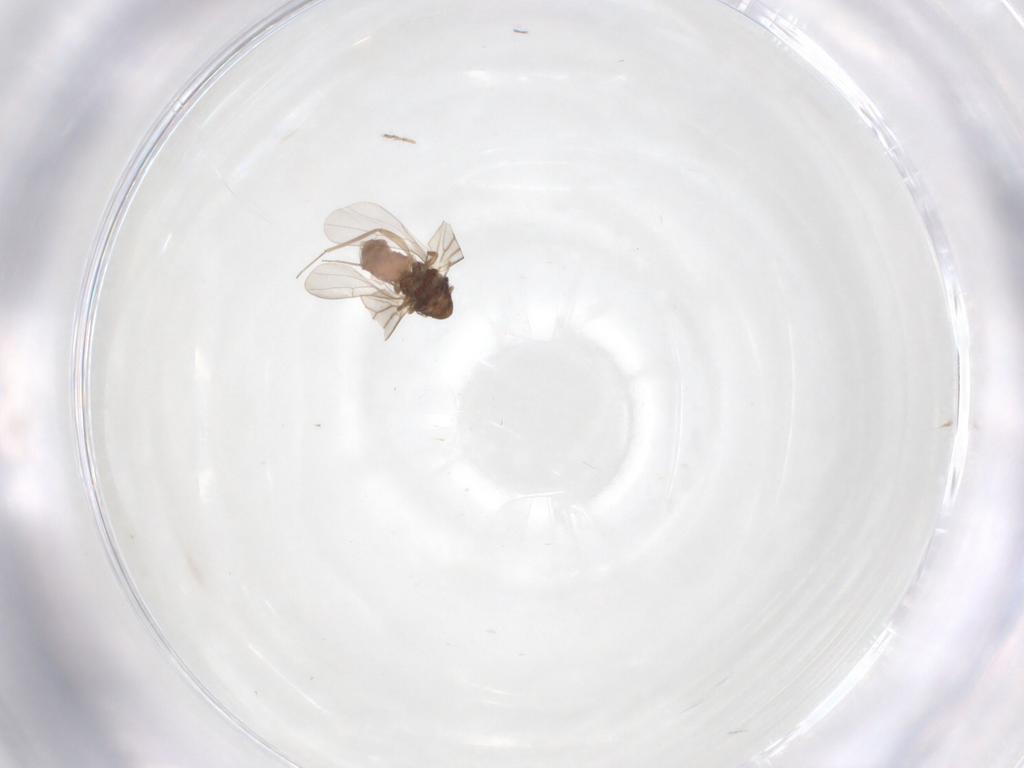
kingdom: Animalia
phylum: Arthropoda
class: Insecta
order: Psocodea
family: Lepidopsocidae
